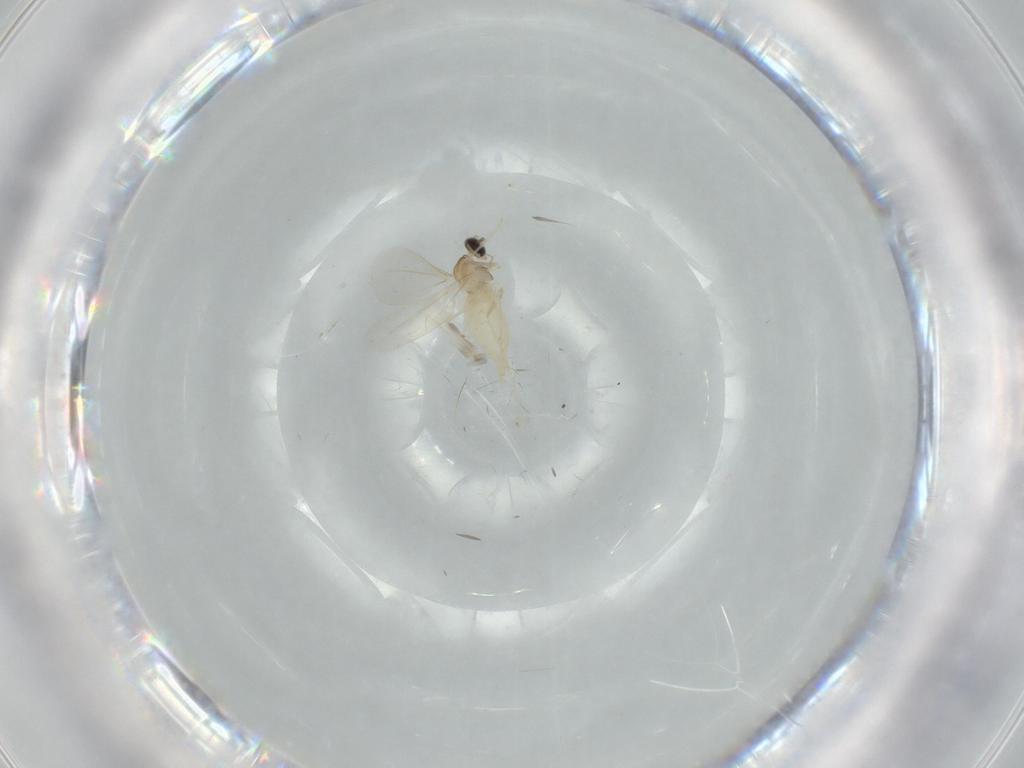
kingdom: Animalia
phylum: Arthropoda
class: Insecta
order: Diptera
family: Cecidomyiidae
